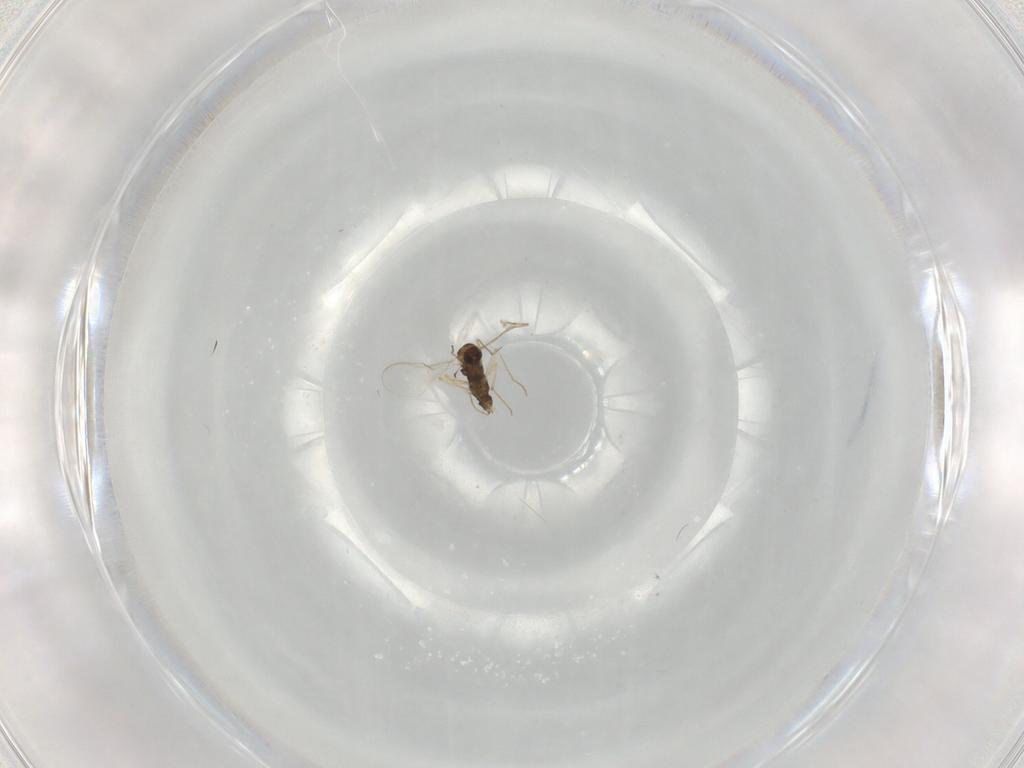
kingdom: Animalia
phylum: Arthropoda
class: Insecta
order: Diptera
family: Chironomidae
